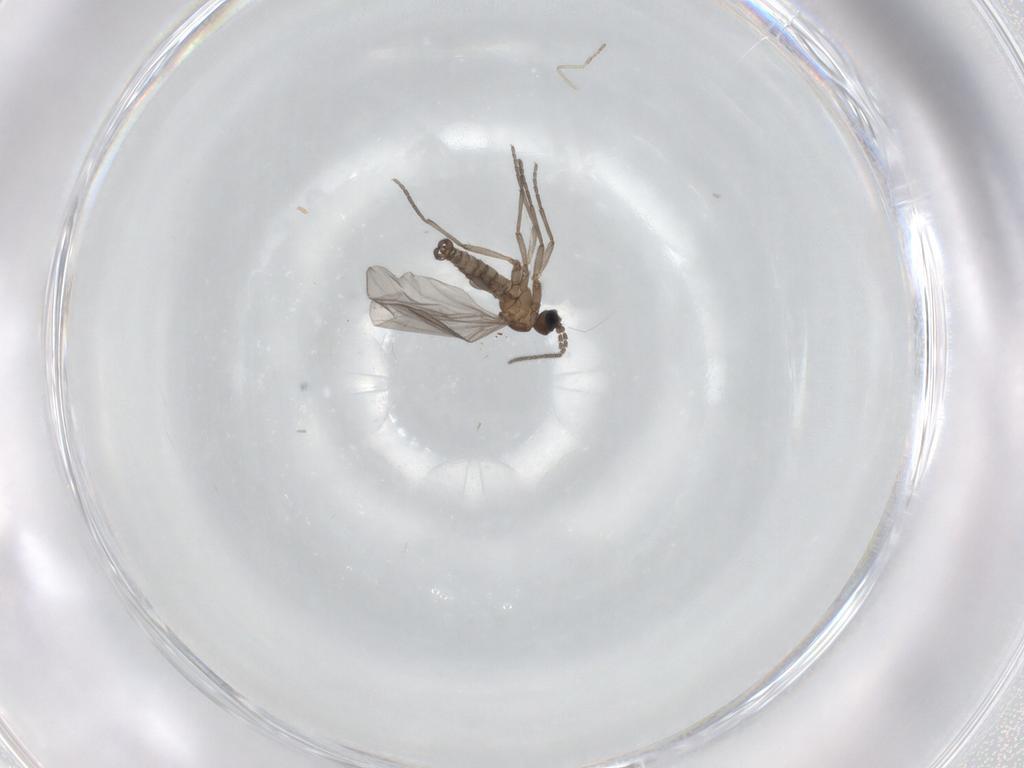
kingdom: Animalia
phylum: Arthropoda
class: Insecta
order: Diptera
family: Sciaridae
